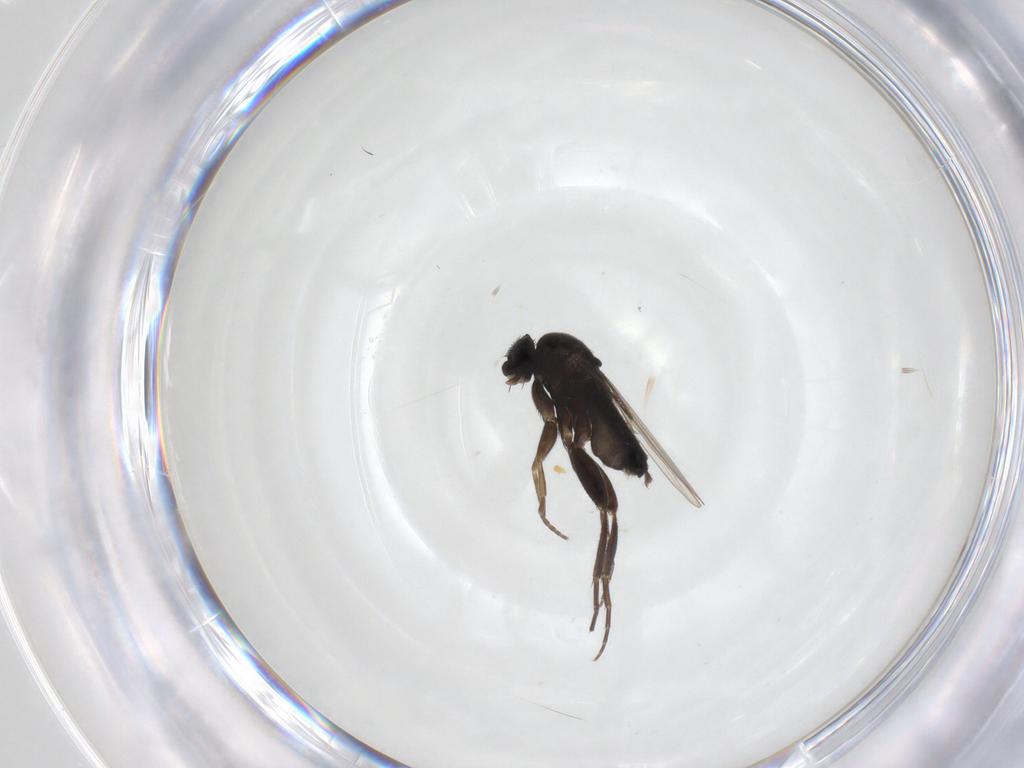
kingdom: Animalia
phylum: Arthropoda
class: Insecta
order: Diptera
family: Phoridae
